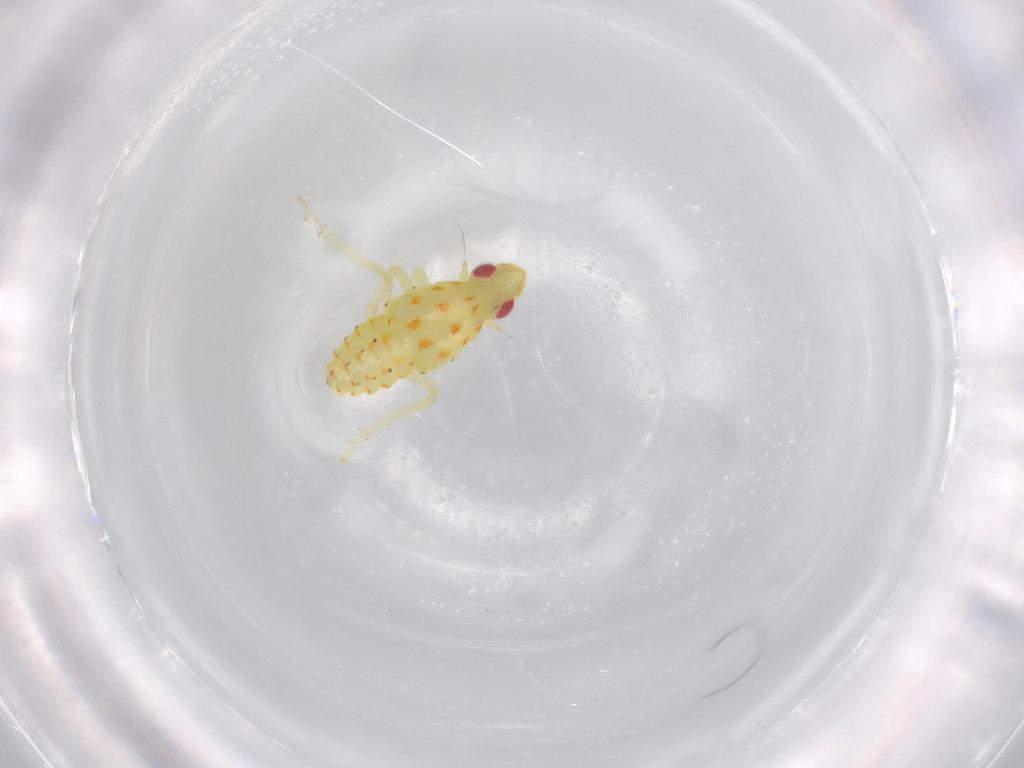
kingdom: Animalia
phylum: Arthropoda
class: Insecta
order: Hemiptera
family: Tropiduchidae
